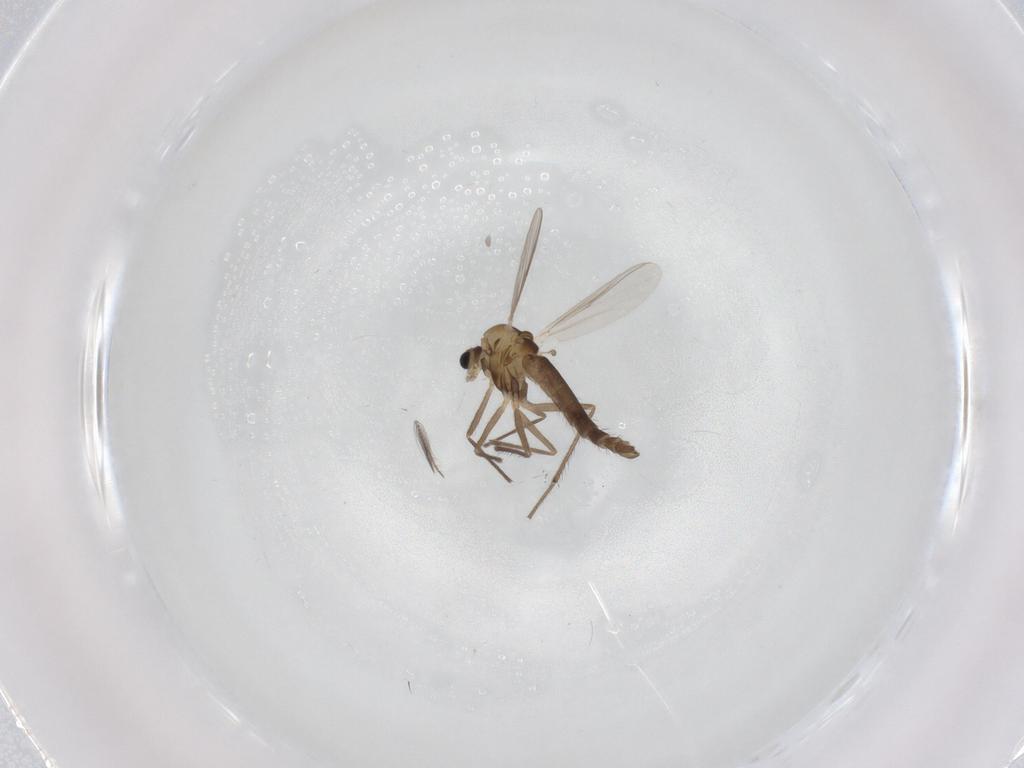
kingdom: Animalia
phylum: Arthropoda
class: Insecta
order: Diptera
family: Chironomidae
